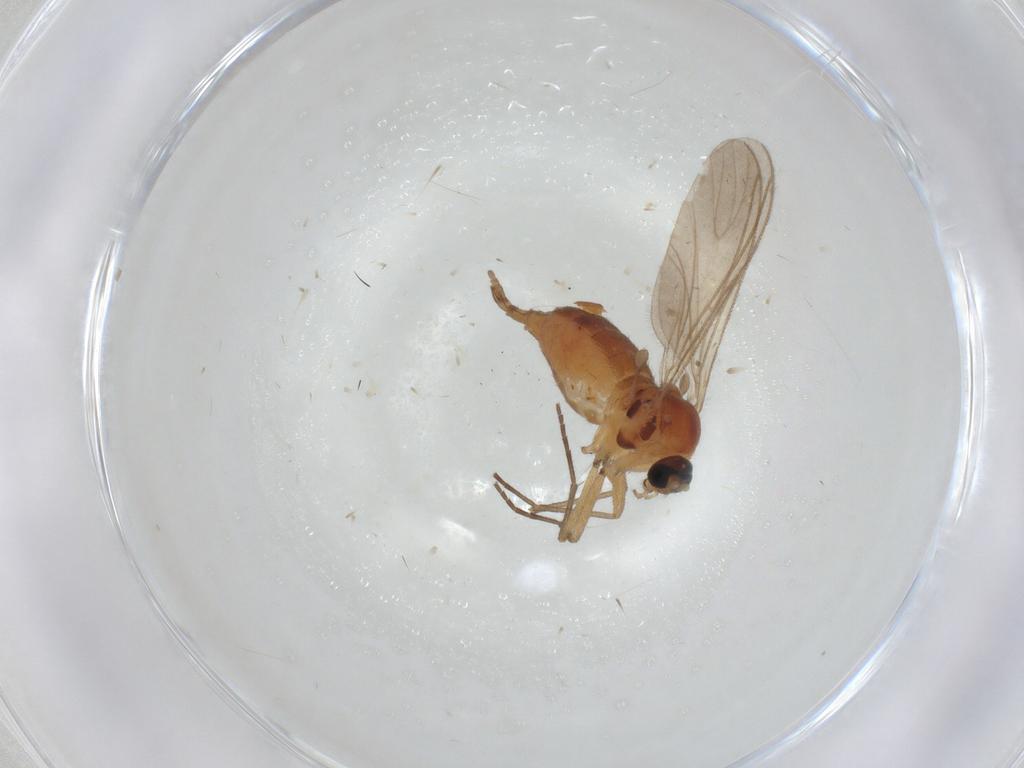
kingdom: Animalia
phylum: Arthropoda
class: Insecta
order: Diptera
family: Sciaridae
